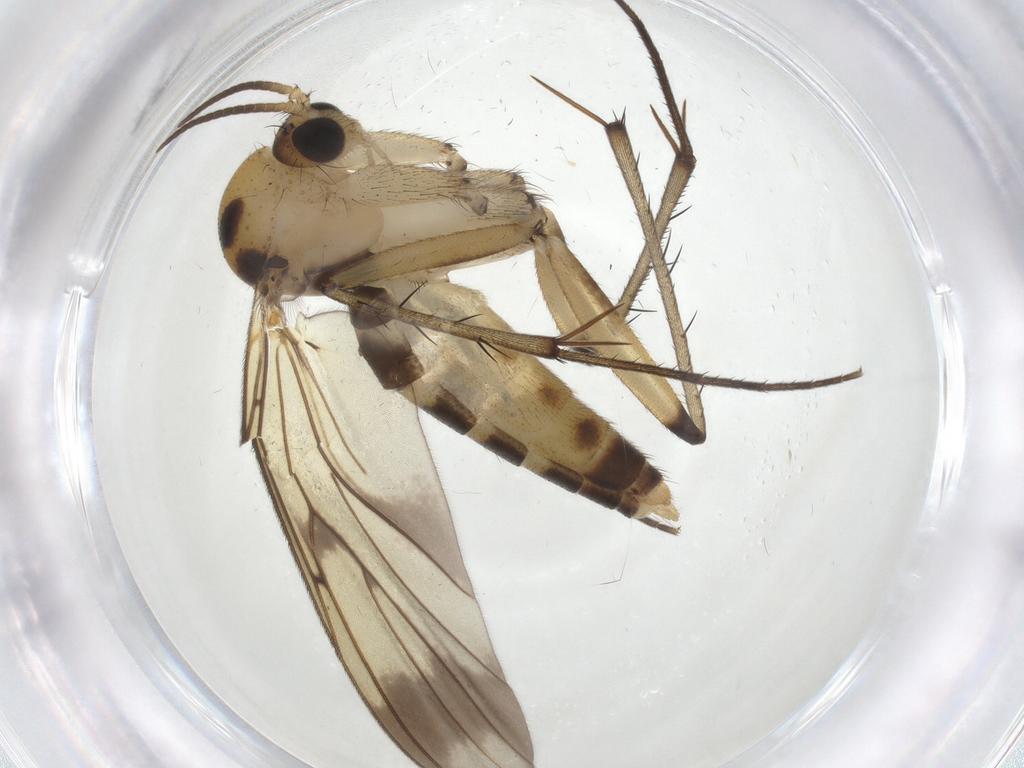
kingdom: Animalia
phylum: Arthropoda
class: Insecta
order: Diptera
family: Mycetophilidae
